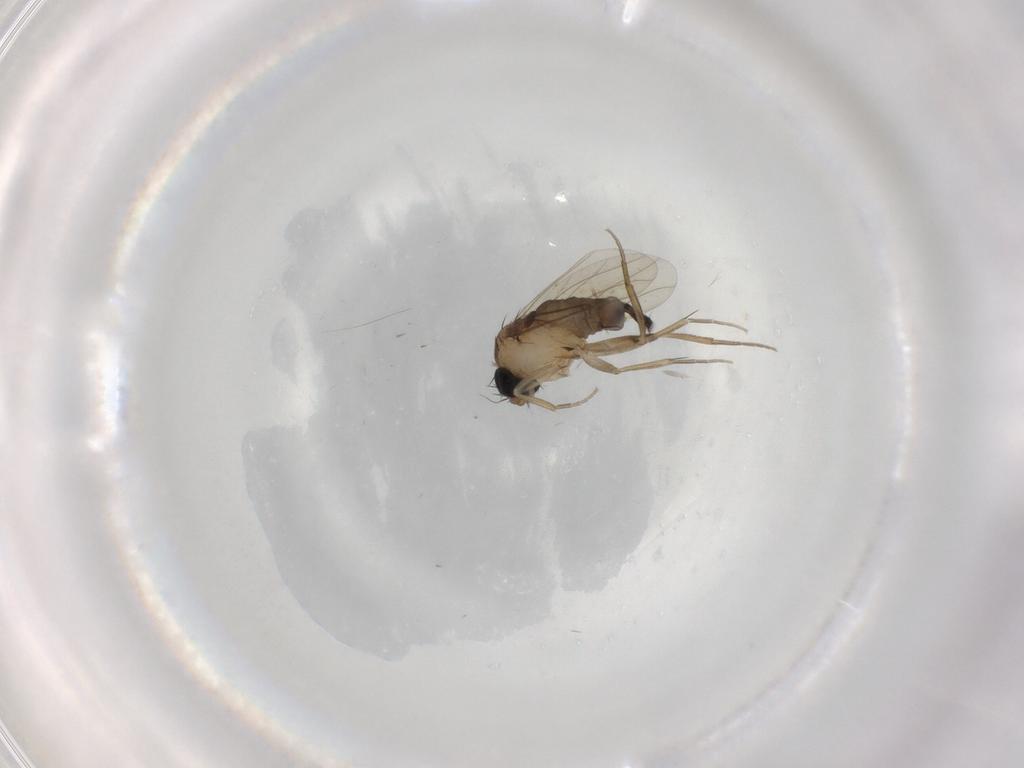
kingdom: Animalia
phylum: Arthropoda
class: Insecta
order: Diptera
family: Phoridae
